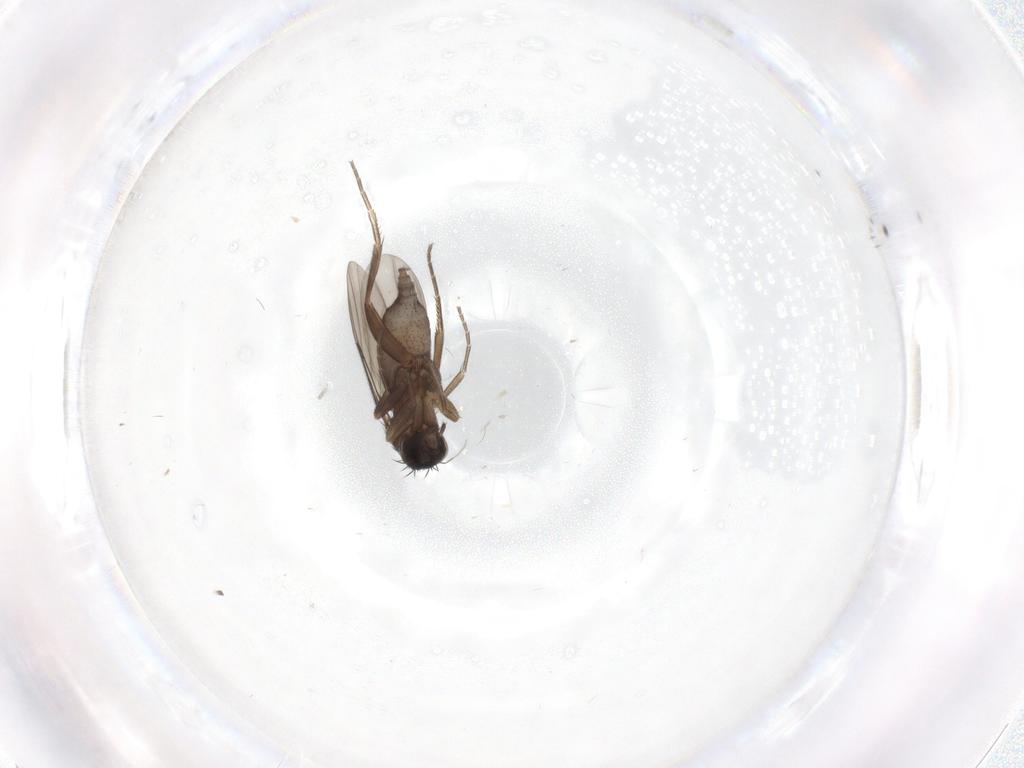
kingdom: Animalia
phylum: Arthropoda
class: Insecta
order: Diptera
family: Phoridae
